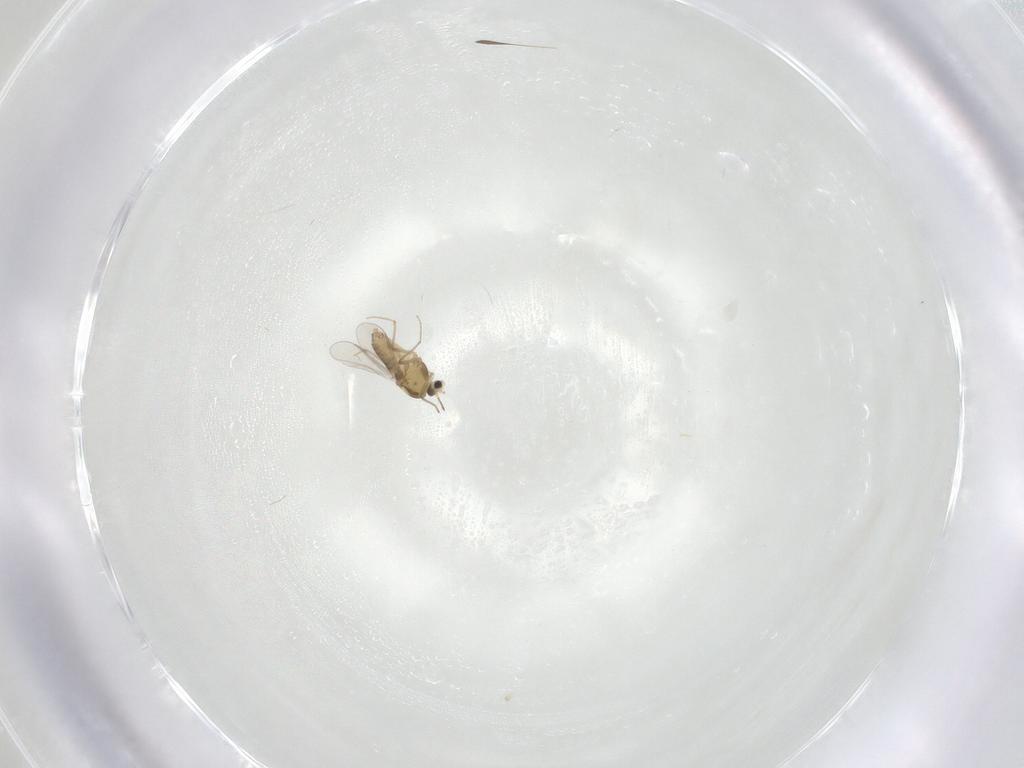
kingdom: Animalia
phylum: Arthropoda
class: Insecta
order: Diptera
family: Chironomidae
